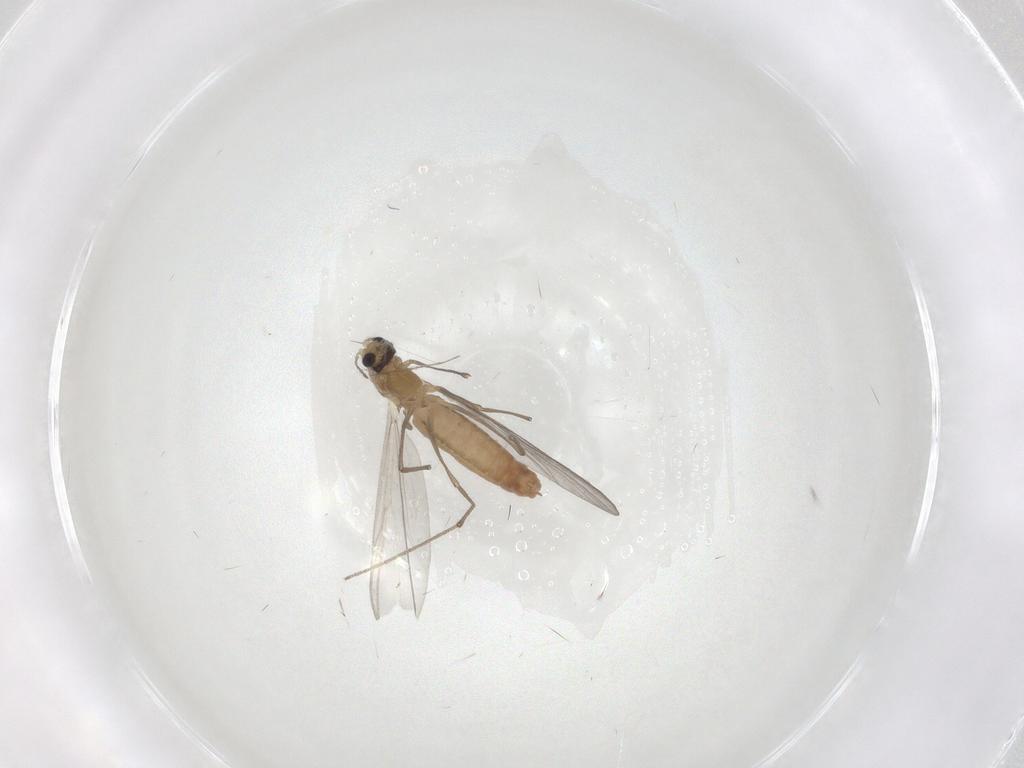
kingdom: Animalia
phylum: Arthropoda
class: Insecta
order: Diptera
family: Chironomidae
